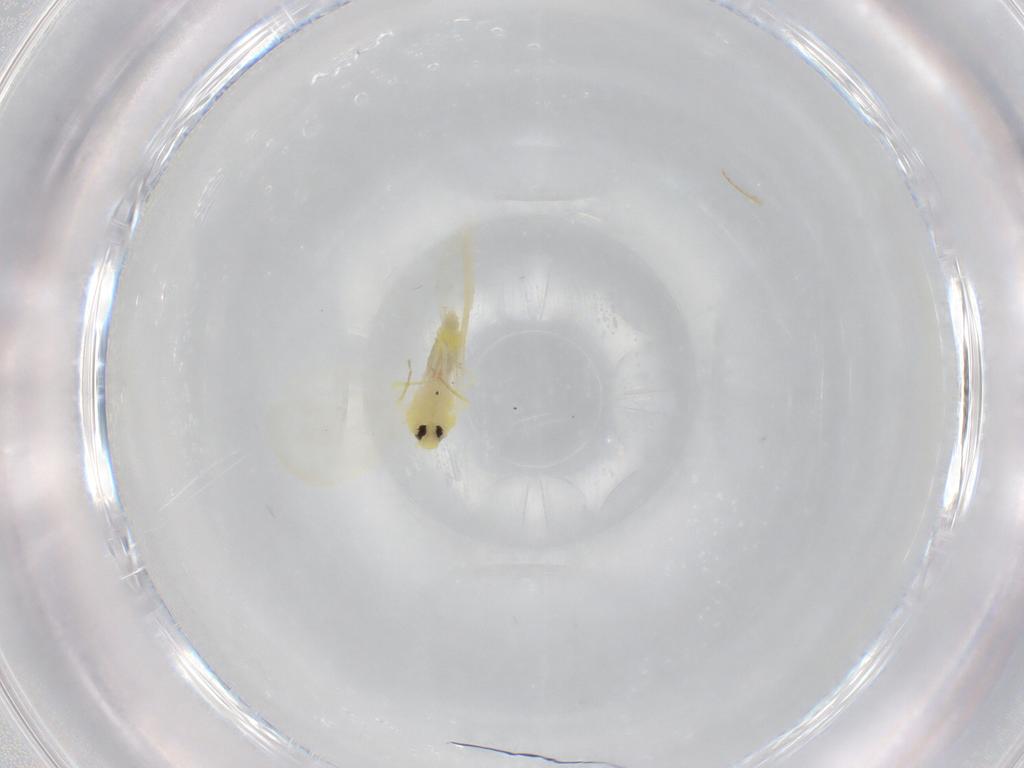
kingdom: Animalia
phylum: Arthropoda
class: Insecta
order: Hemiptera
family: Aleyrodidae
